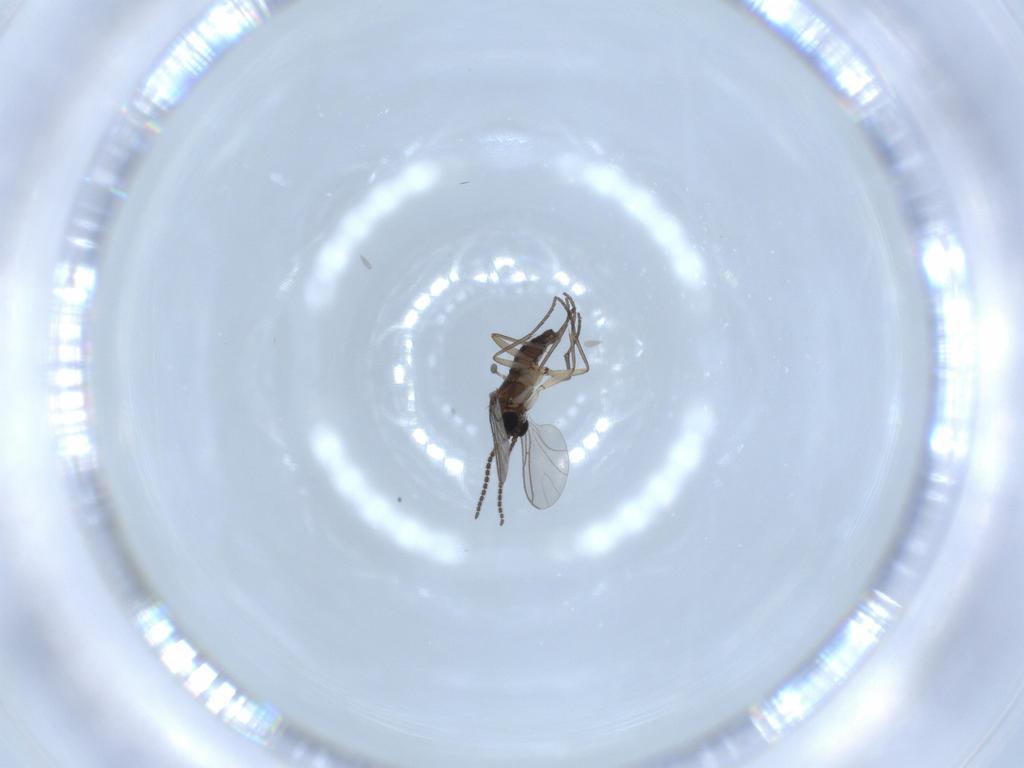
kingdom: Animalia
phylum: Arthropoda
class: Insecta
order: Diptera
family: Sciaridae
